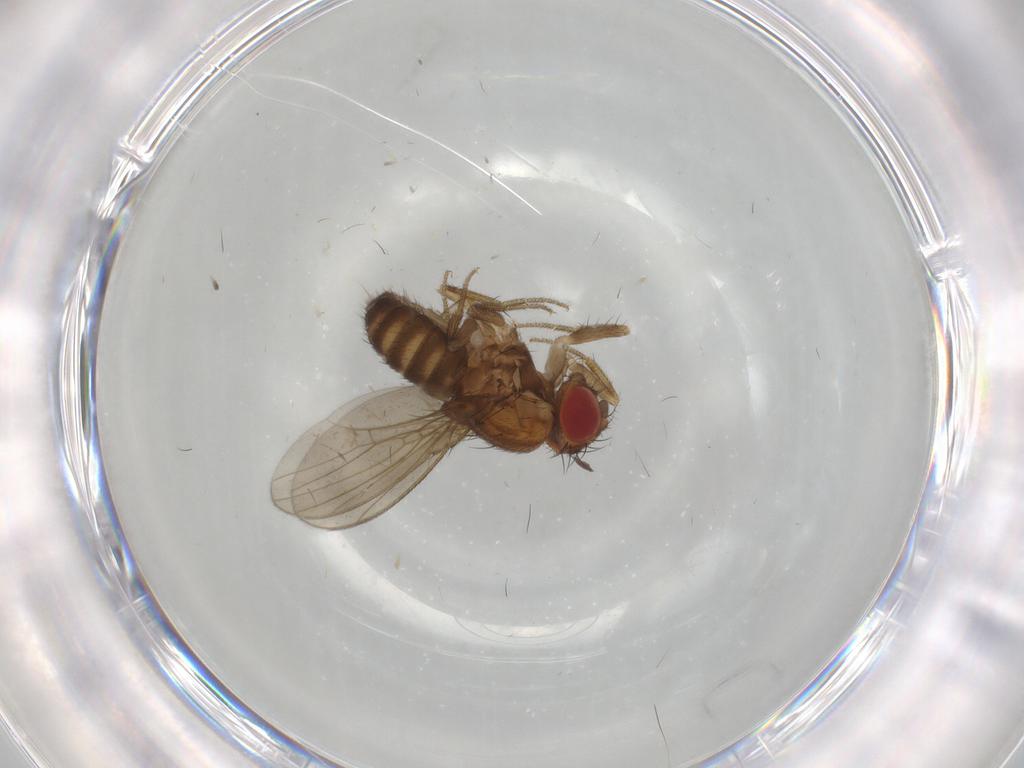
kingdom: Animalia
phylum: Arthropoda
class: Insecta
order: Diptera
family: Drosophilidae
